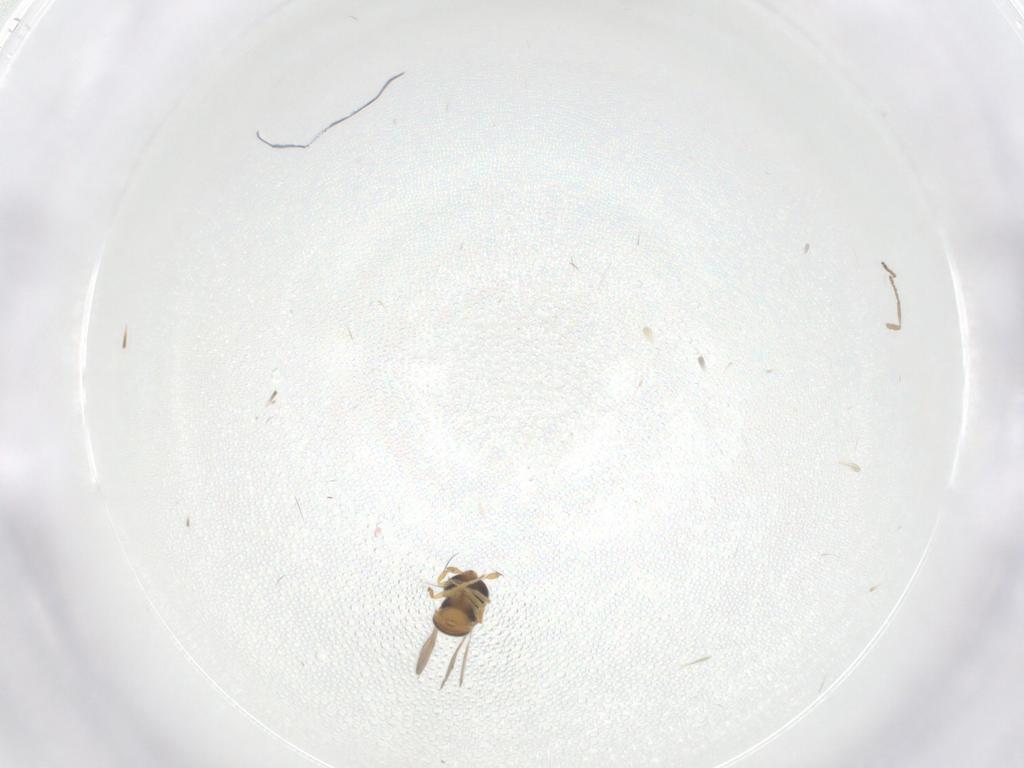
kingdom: Animalia
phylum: Arthropoda
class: Insecta
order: Hymenoptera
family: Scelionidae
